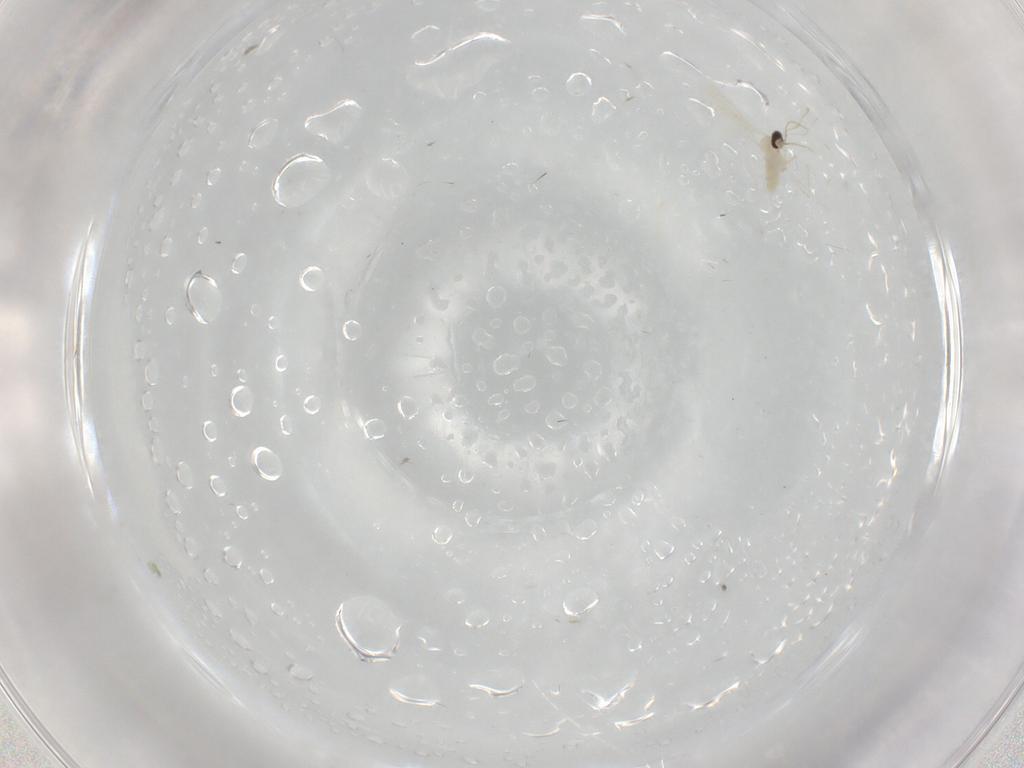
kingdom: Animalia
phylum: Arthropoda
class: Insecta
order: Diptera
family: Cecidomyiidae
